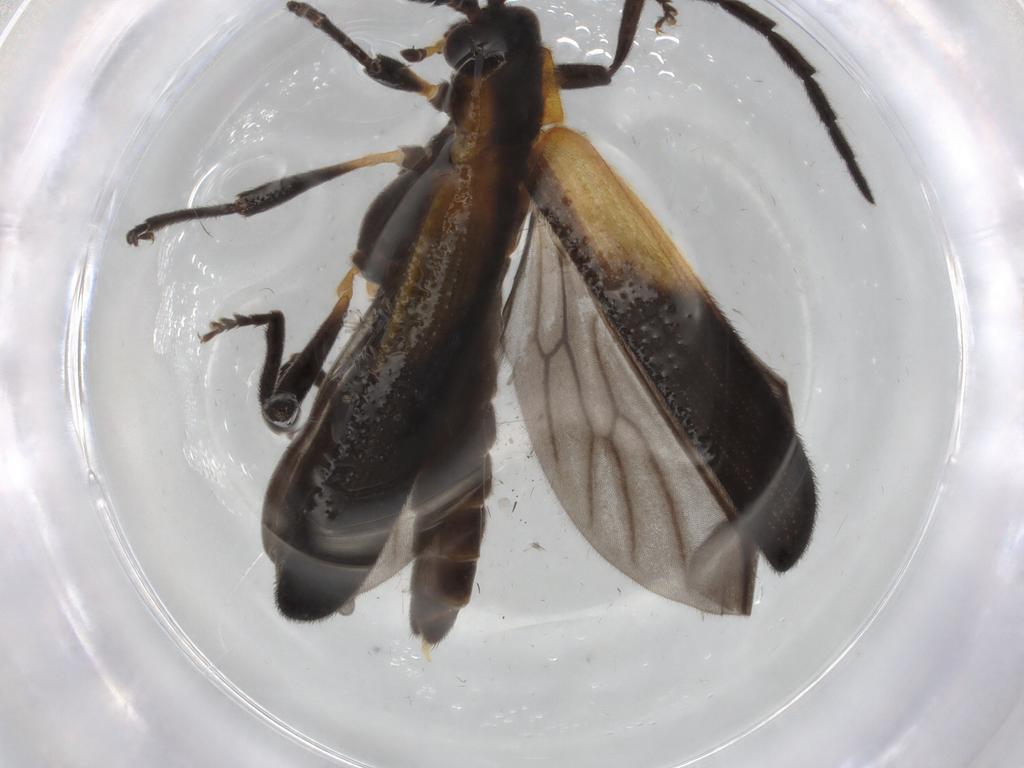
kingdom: Animalia
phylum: Arthropoda
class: Insecta
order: Coleoptera
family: Lycidae
